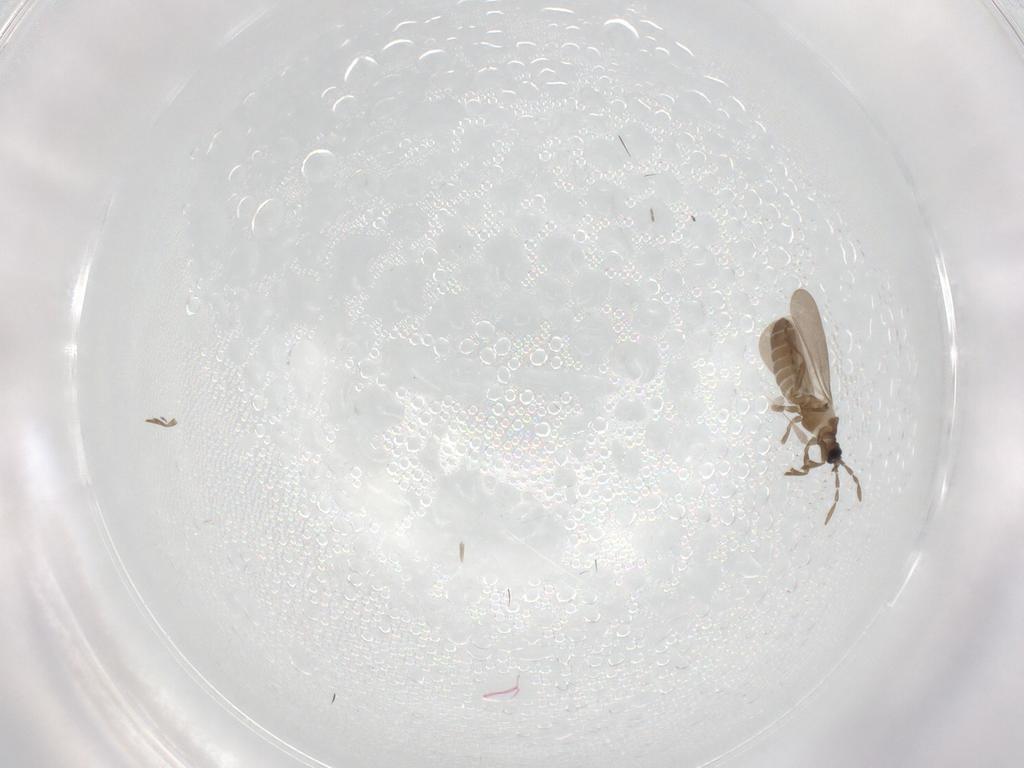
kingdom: Animalia
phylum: Arthropoda
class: Insecta
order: Hemiptera
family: Enicocephalidae
